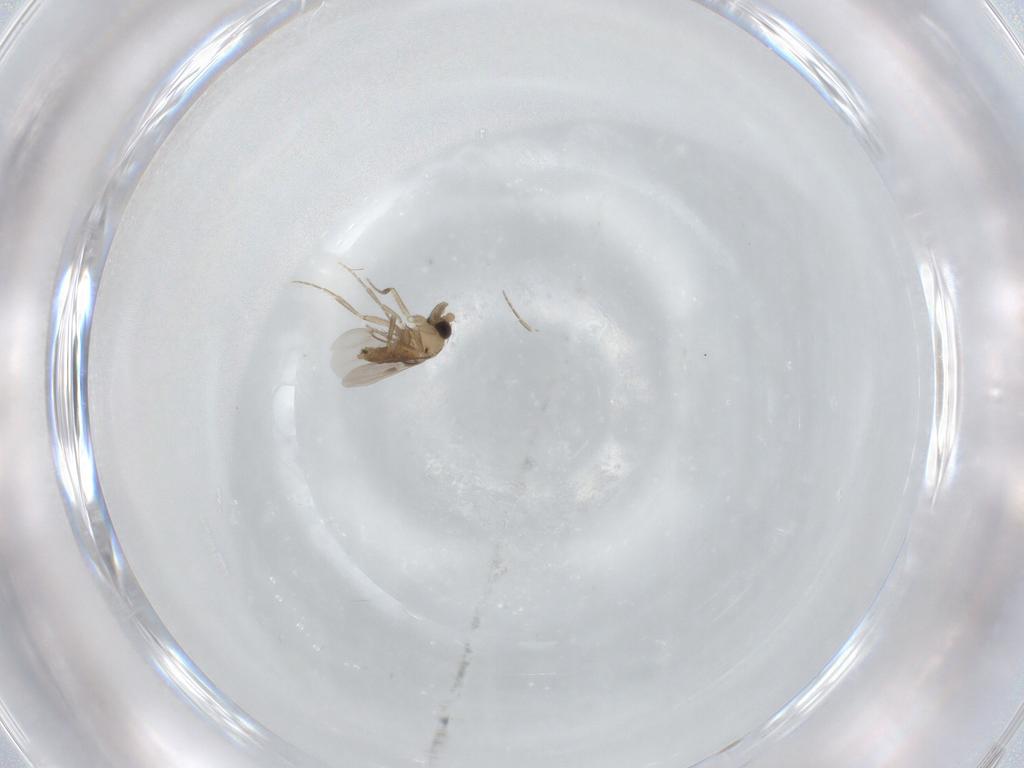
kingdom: Animalia
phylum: Arthropoda
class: Insecta
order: Diptera
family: Phoridae
